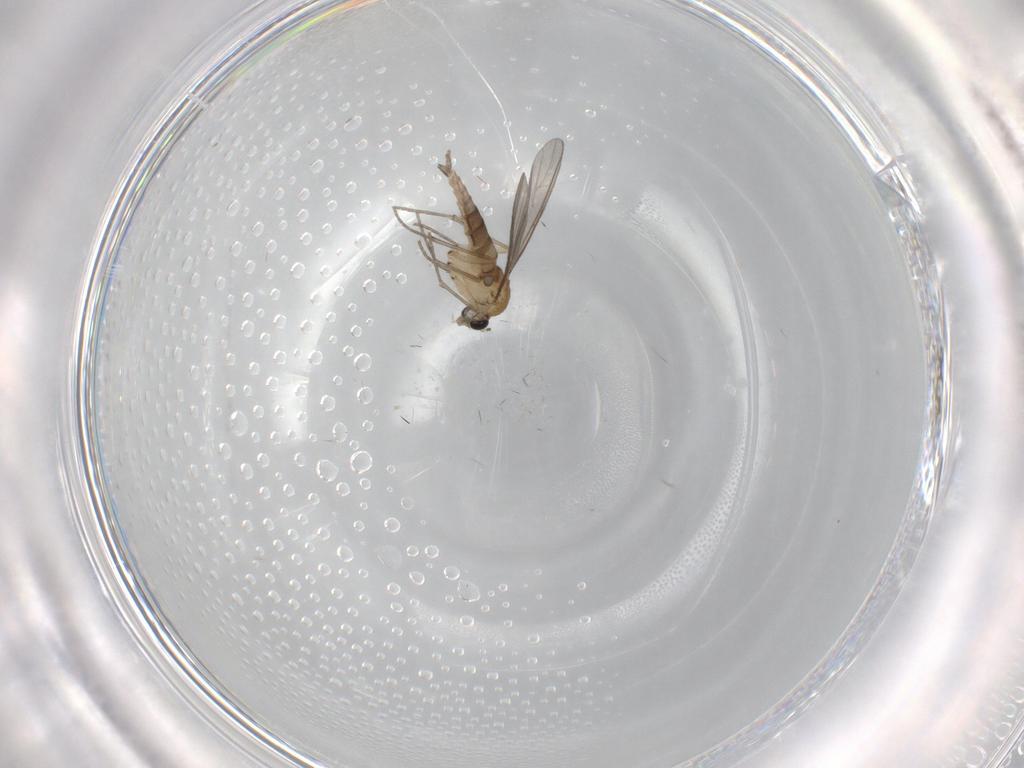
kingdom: Animalia
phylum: Arthropoda
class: Insecta
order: Diptera
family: Sciaridae
